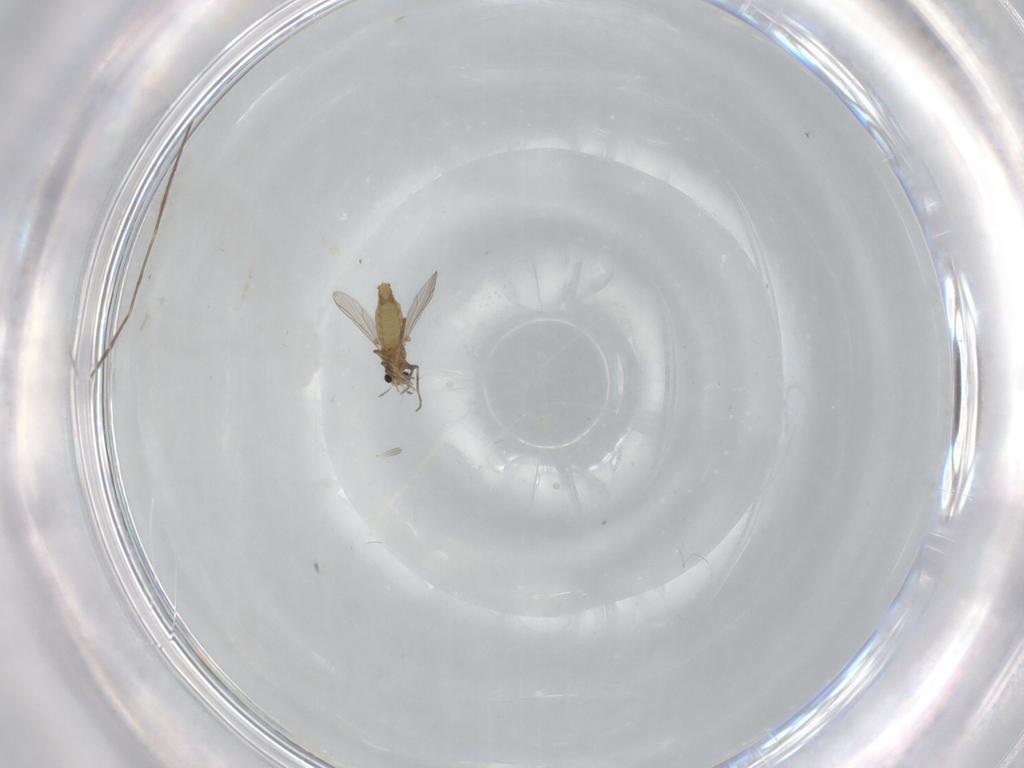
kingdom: Animalia
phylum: Arthropoda
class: Insecta
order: Diptera
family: Chironomidae
